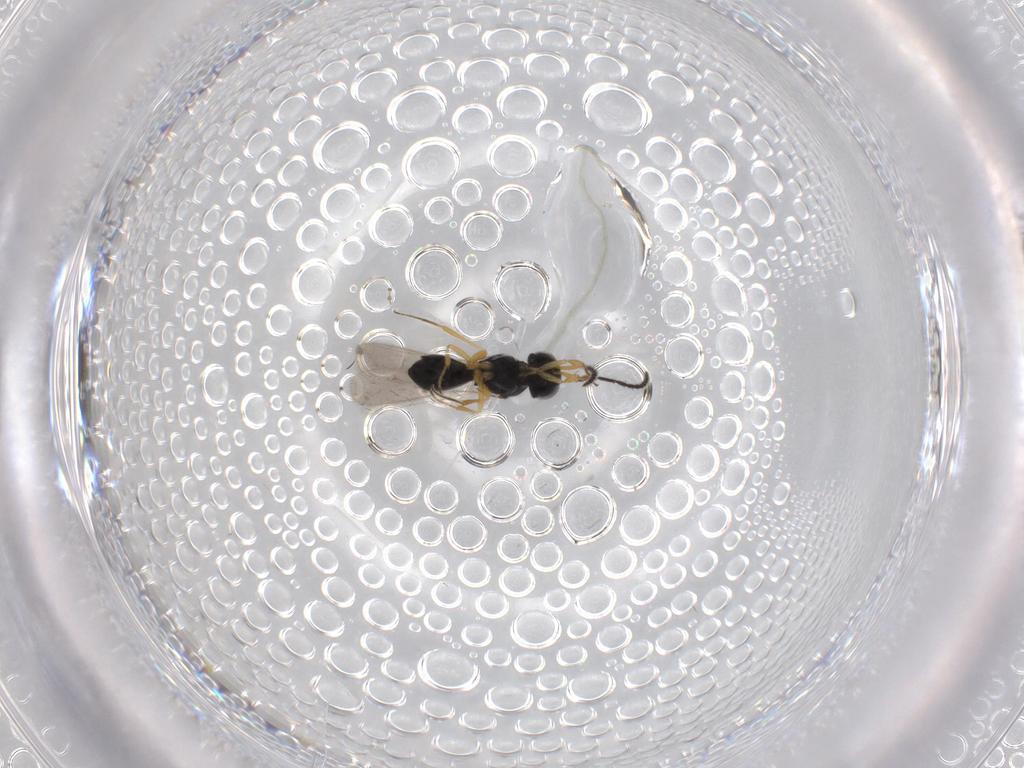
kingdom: Animalia
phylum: Arthropoda
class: Insecta
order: Hymenoptera
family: Scelionidae
